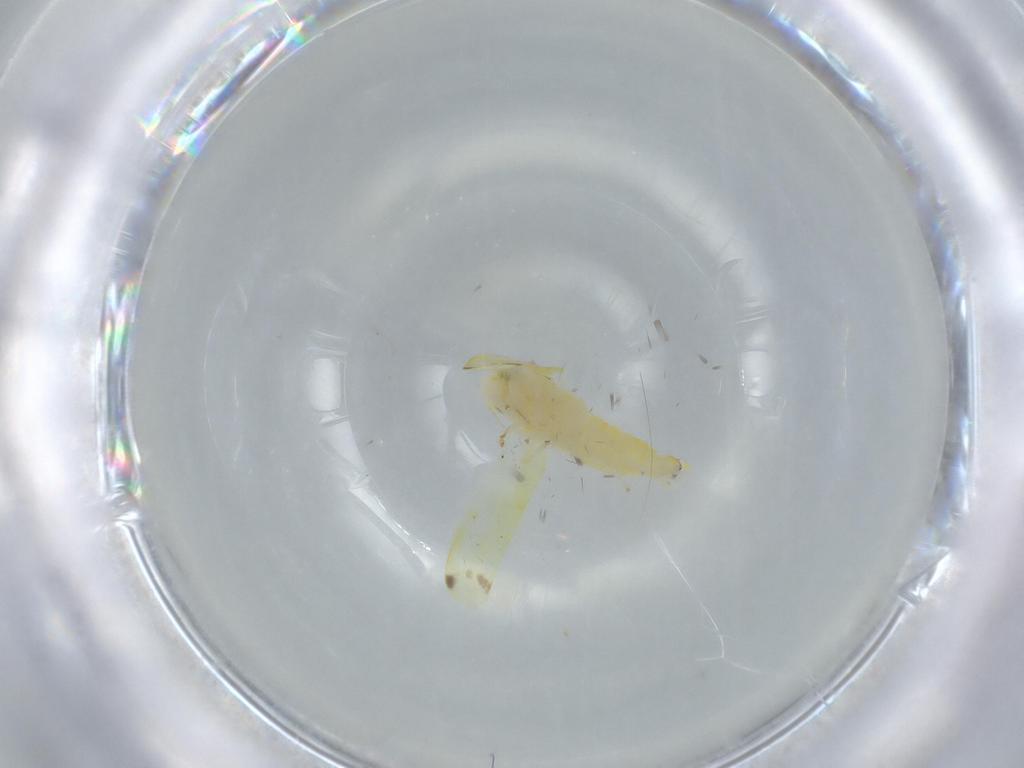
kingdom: Animalia
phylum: Arthropoda
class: Insecta
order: Hemiptera
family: Cicadellidae
